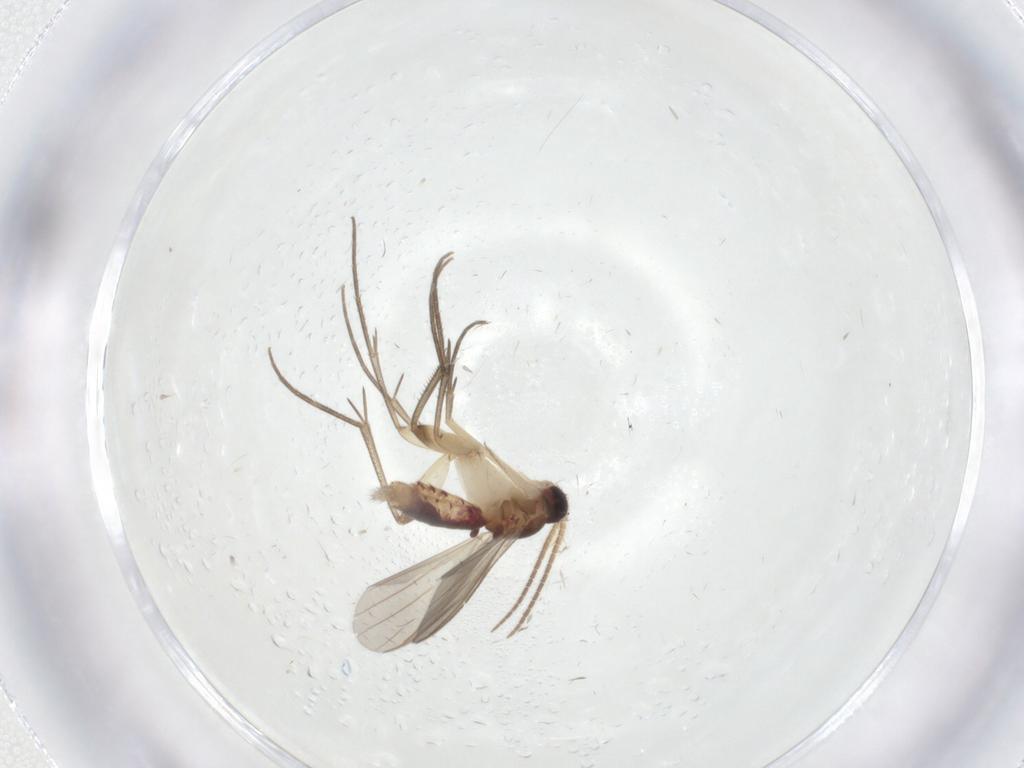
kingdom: Animalia
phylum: Arthropoda
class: Insecta
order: Diptera
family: Mycetophilidae
